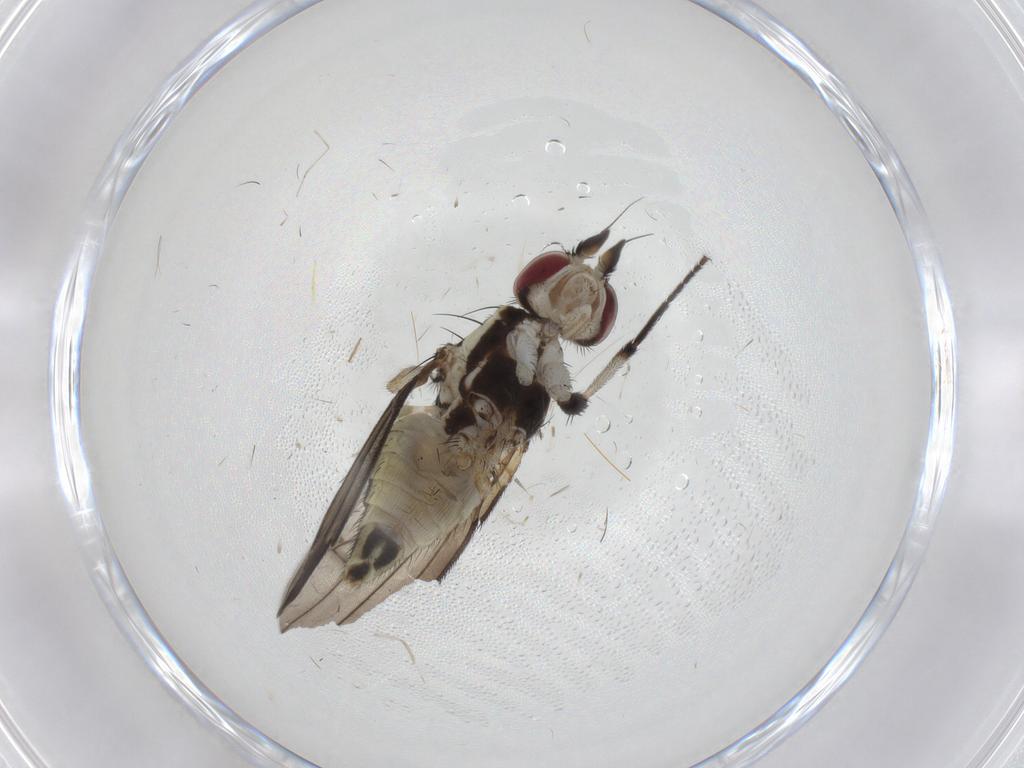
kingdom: Animalia
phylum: Arthropoda
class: Insecta
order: Diptera
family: Pseudopomyzidae
